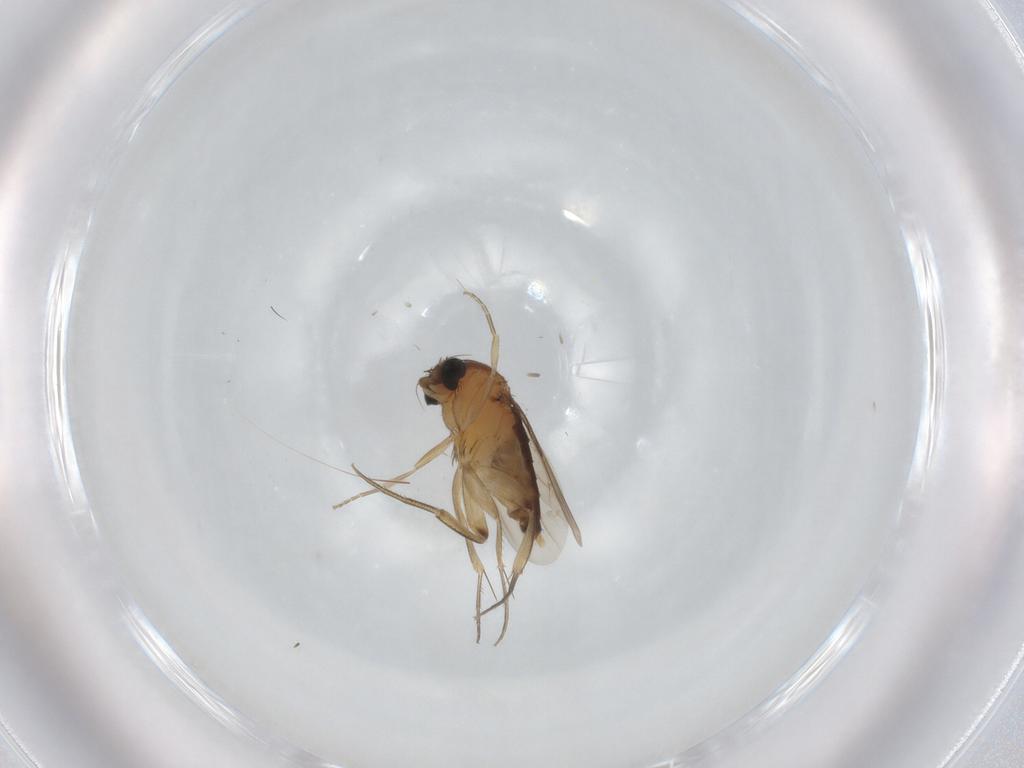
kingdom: Animalia
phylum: Arthropoda
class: Insecta
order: Diptera
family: Phoridae
